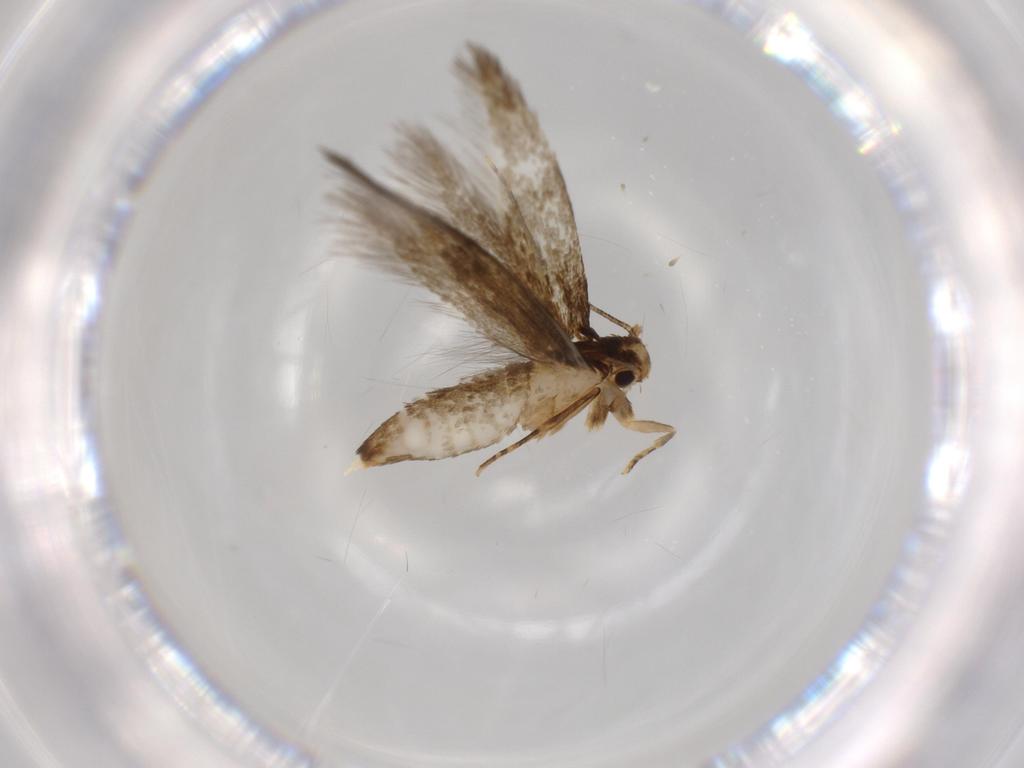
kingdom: Animalia
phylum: Arthropoda
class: Insecta
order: Lepidoptera
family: Tineidae
